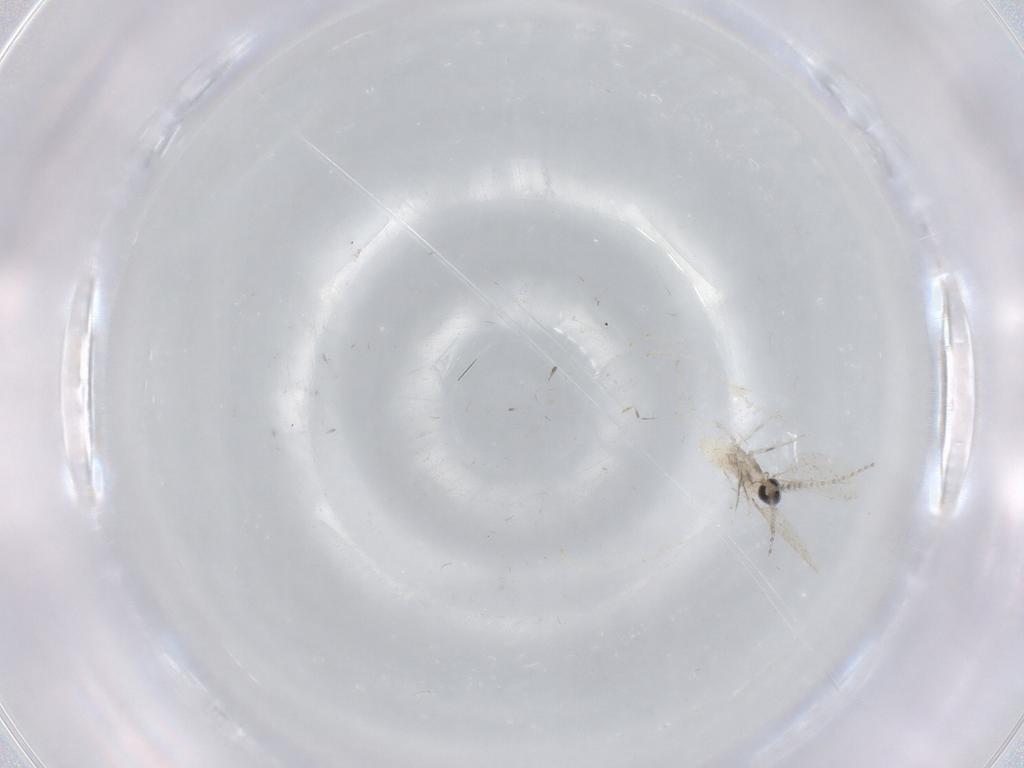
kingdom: Animalia
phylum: Arthropoda
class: Insecta
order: Diptera
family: Cecidomyiidae
